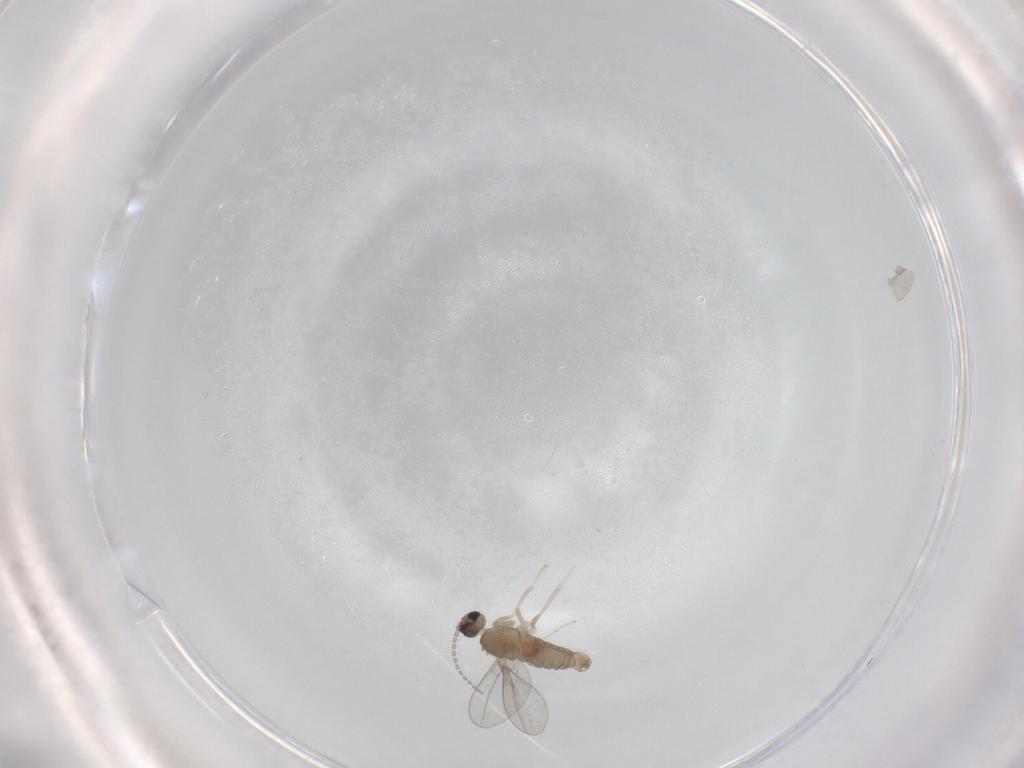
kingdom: Animalia
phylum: Arthropoda
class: Insecta
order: Diptera
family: Cecidomyiidae
